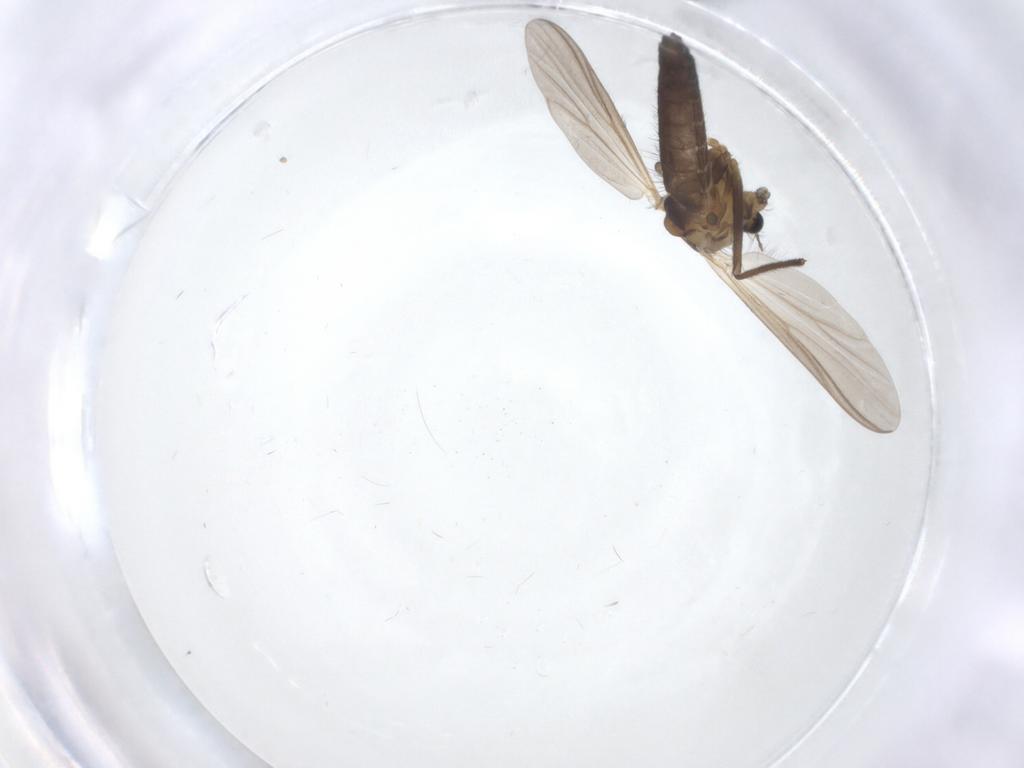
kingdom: Animalia
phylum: Arthropoda
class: Insecta
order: Diptera
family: Chironomidae
